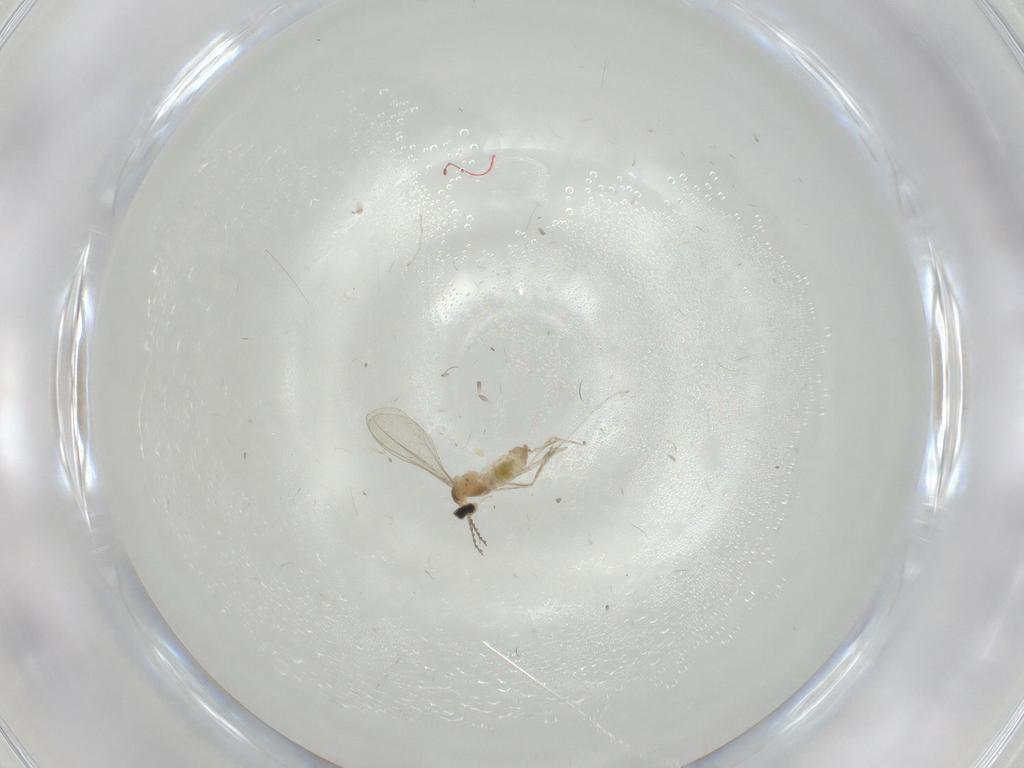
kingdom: Animalia
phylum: Arthropoda
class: Insecta
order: Diptera
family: Cecidomyiidae
